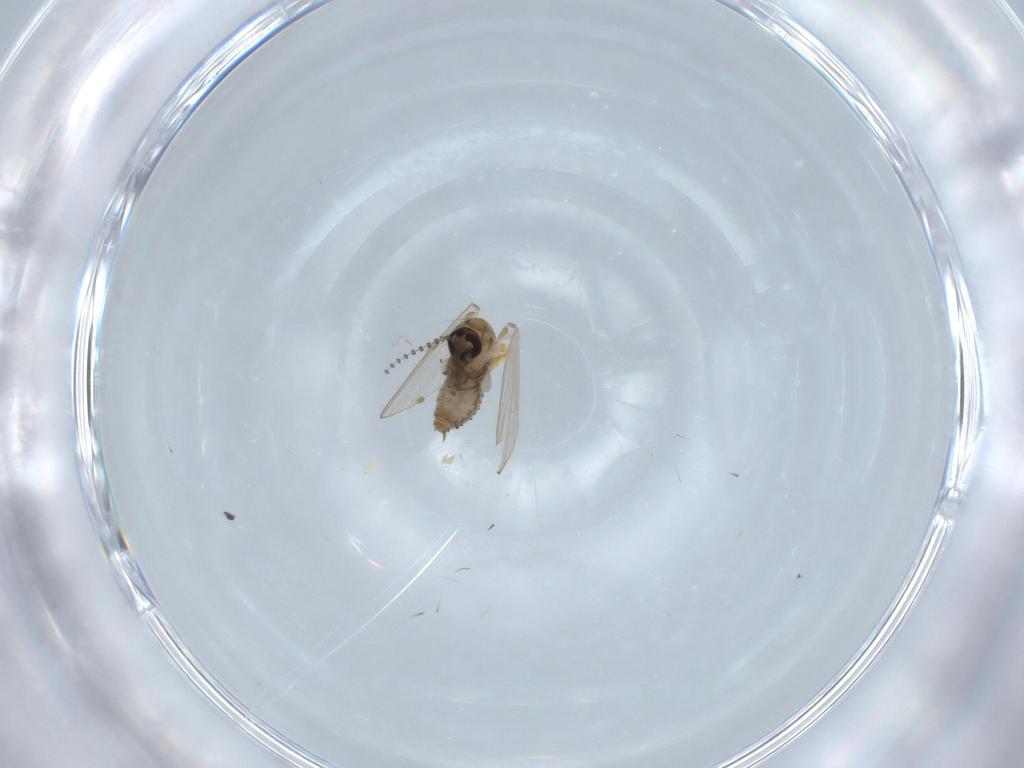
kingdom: Animalia
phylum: Arthropoda
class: Insecta
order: Diptera
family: Psychodidae
